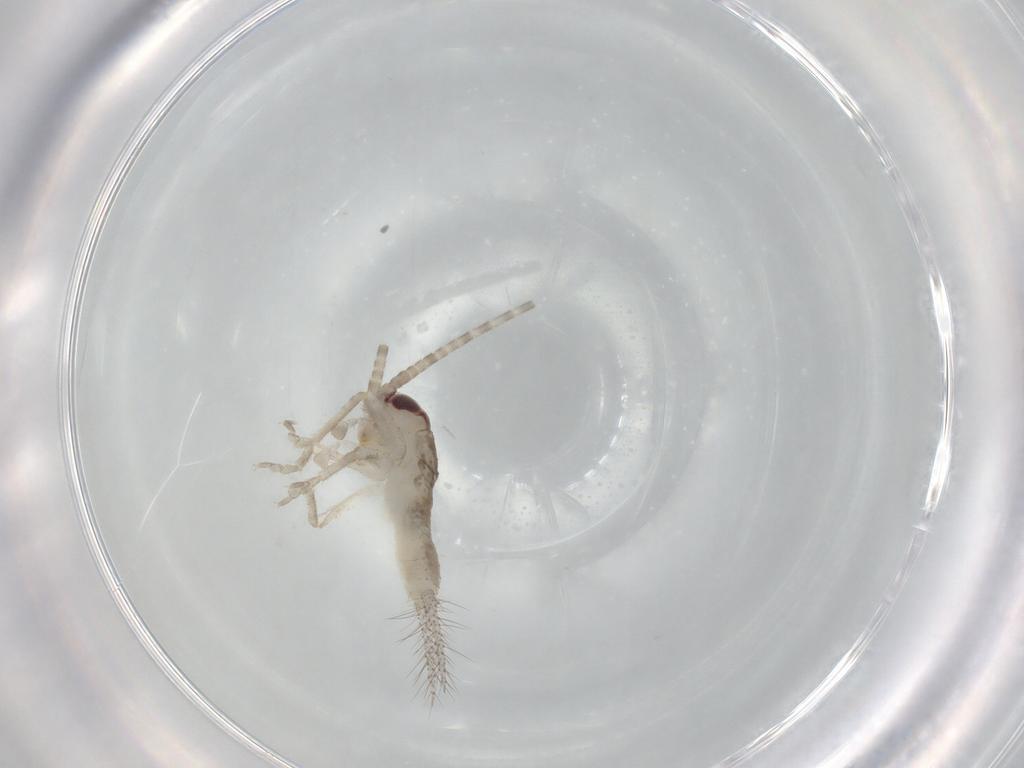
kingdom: Animalia
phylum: Arthropoda
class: Insecta
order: Orthoptera
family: Gryllidae
